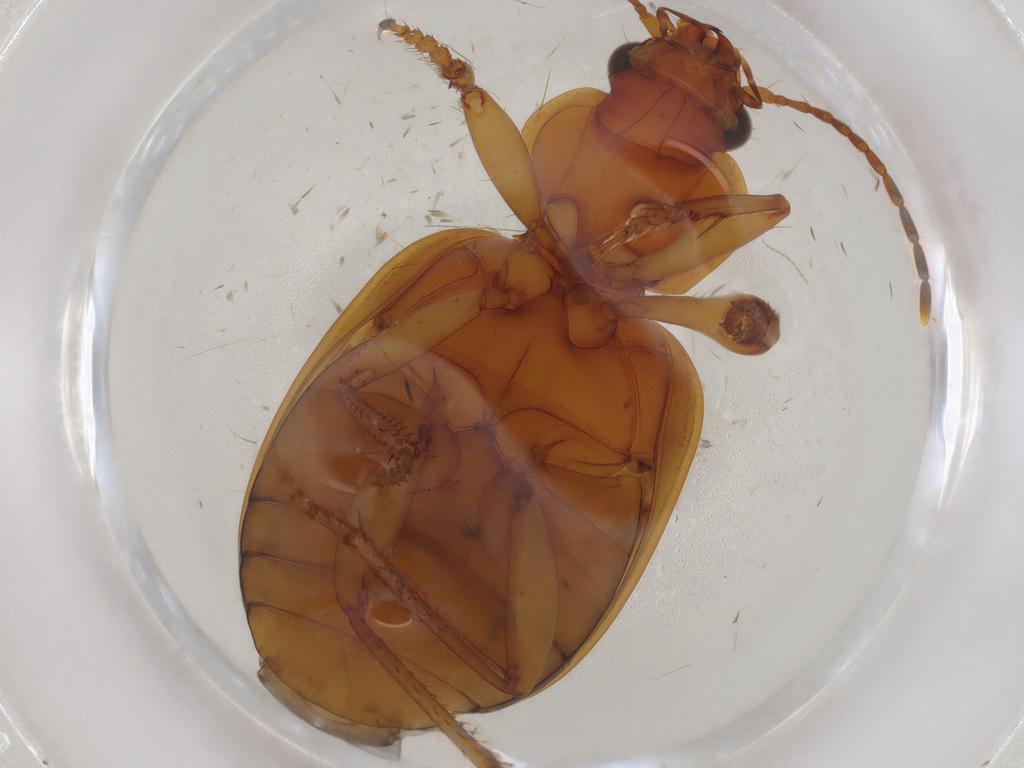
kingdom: Animalia
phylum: Arthropoda
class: Insecta
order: Coleoptera
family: Carabidae
